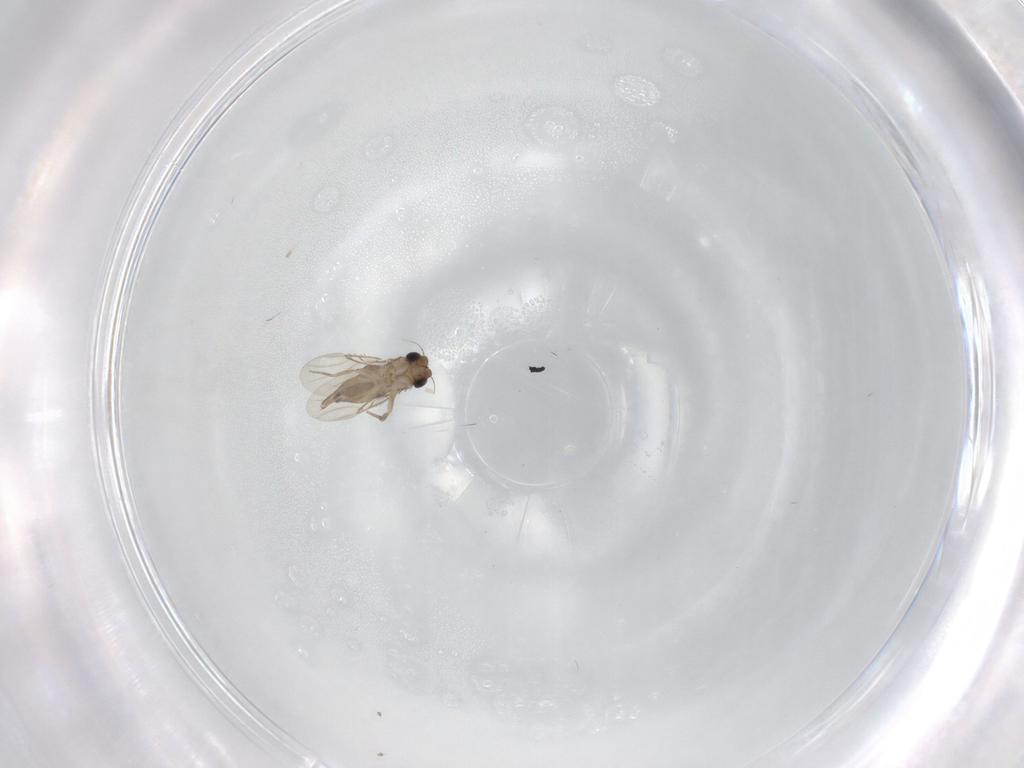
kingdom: Animalia
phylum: Arthropoda
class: Insecta
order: Diptera
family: Phoridae
